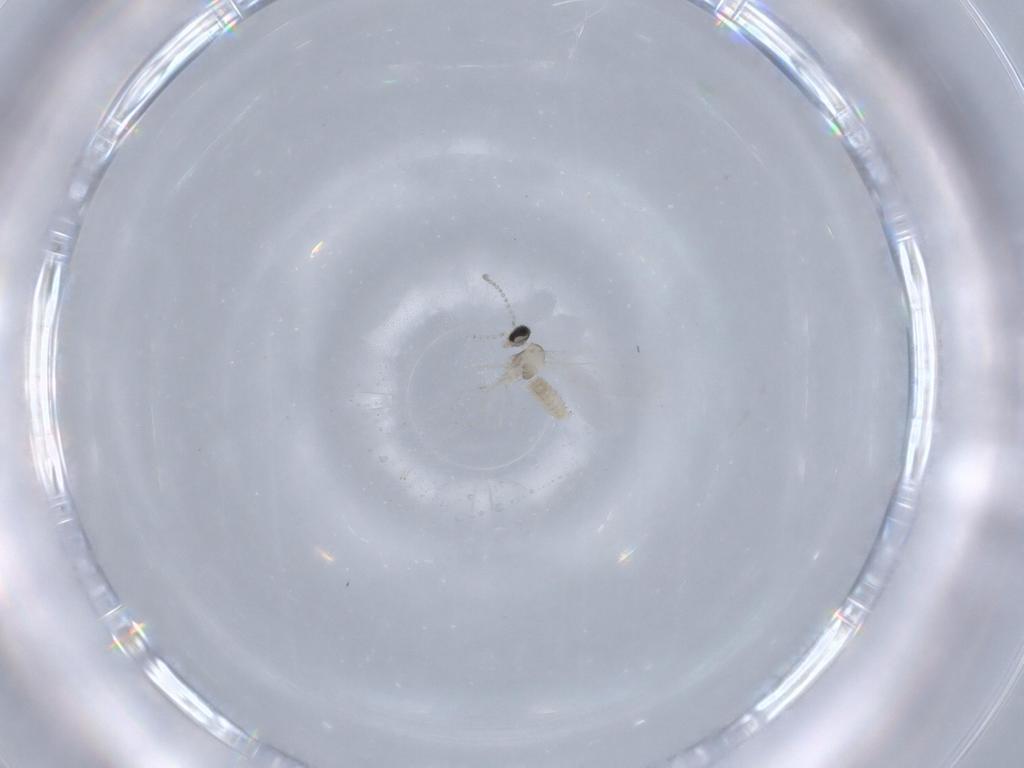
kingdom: Animalia
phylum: Arthropoda
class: Insecta
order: Diptera
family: Cecidomyiidae
